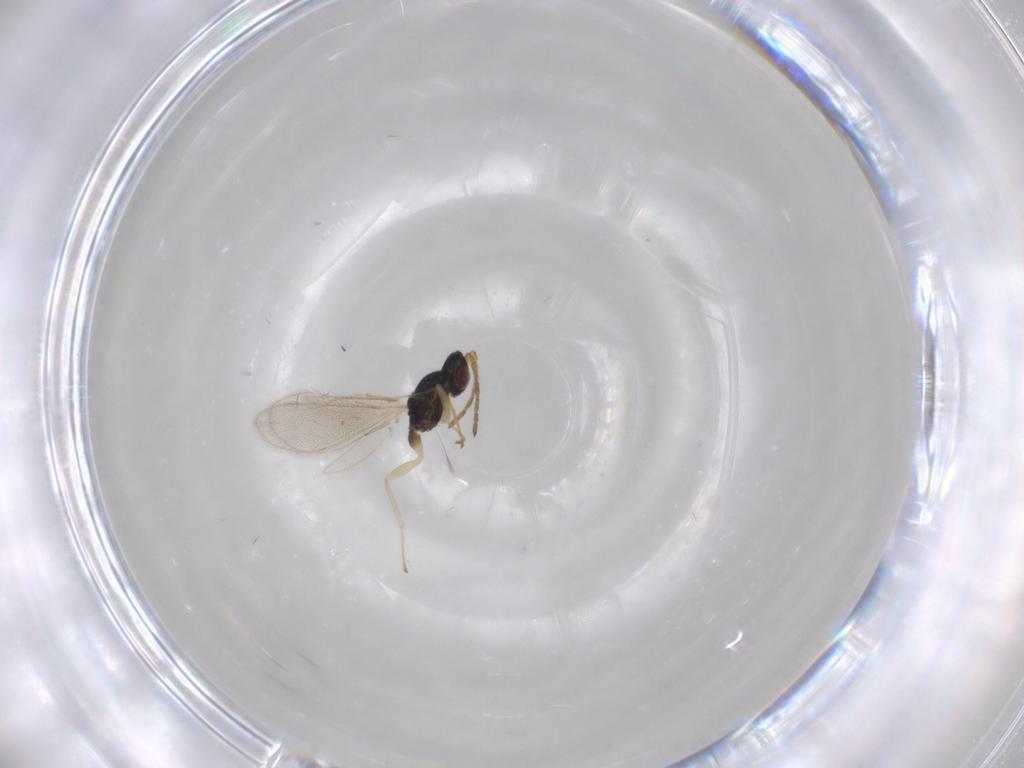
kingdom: Animalia
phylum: Arthropoda
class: Insecta
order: Hymenoptera
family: Eulophidae
